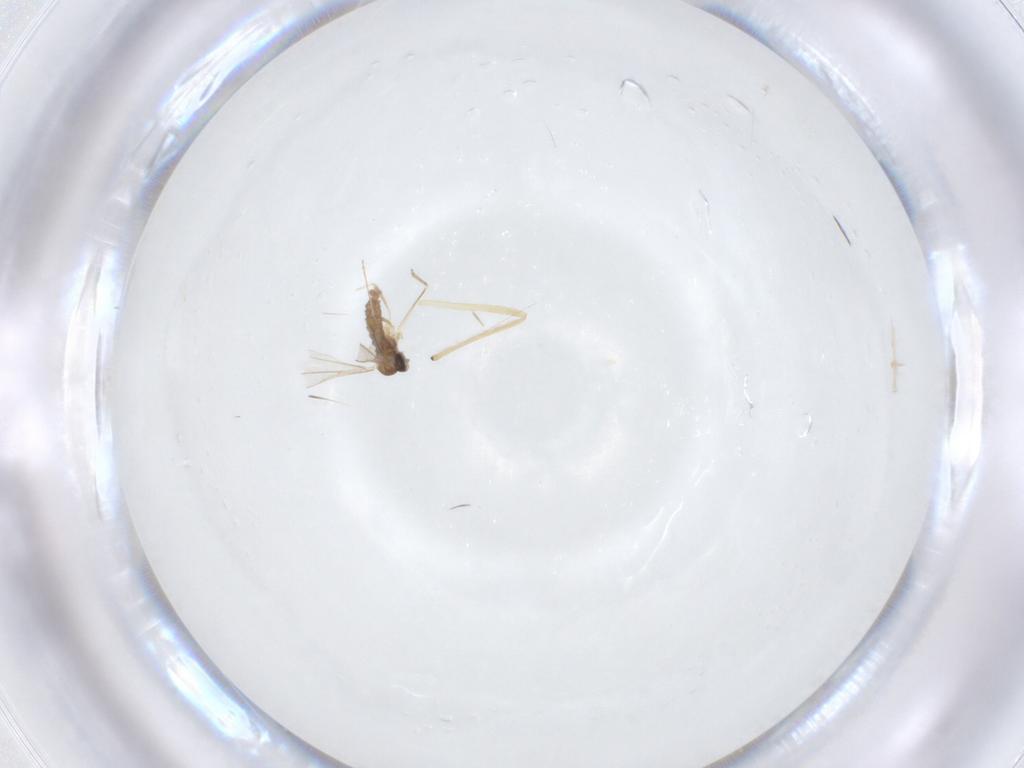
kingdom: Animalia
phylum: Arthropoda
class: Insecta
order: Diptera
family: Cecidomyiidae
